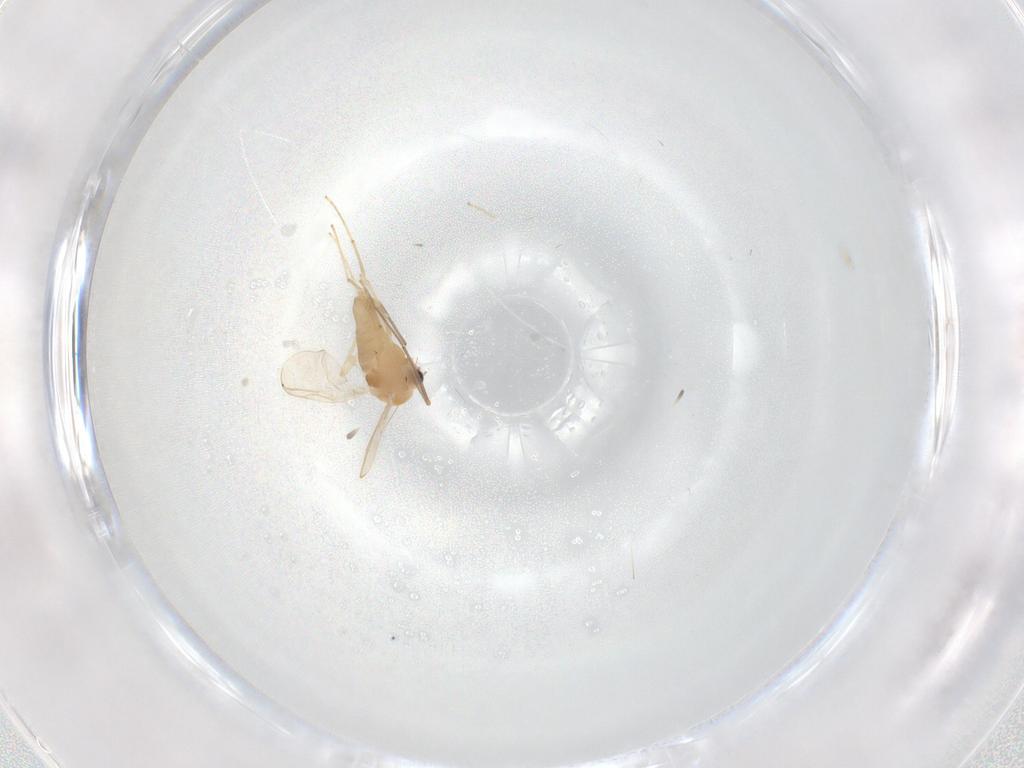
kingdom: Animalia
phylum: Arthropoda
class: Insecta
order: Diptera
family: Chironomidae
